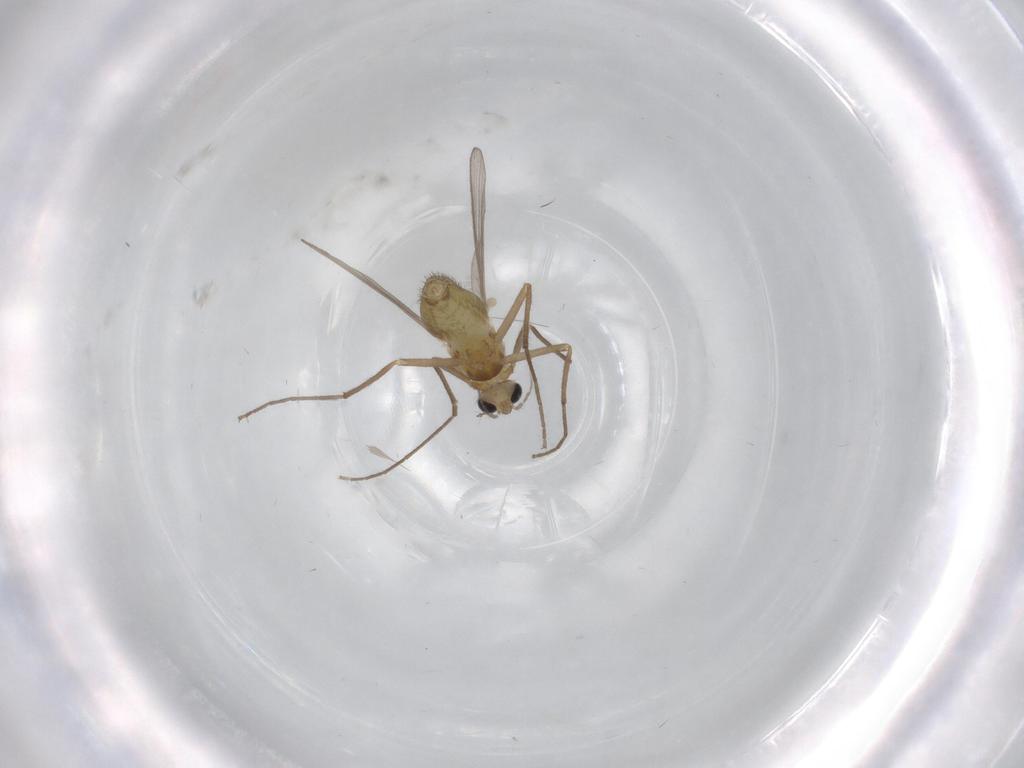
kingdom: Animalia
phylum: Arthropoda
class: Insecta
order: Diptera
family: Chironomidae
